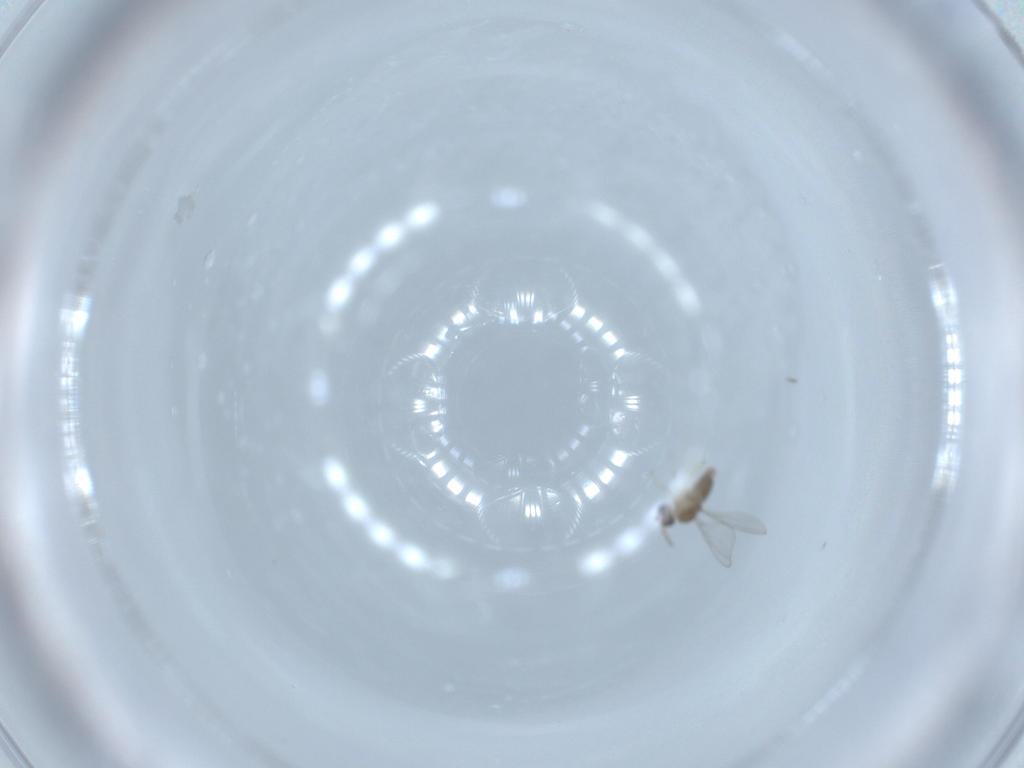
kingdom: Animalia
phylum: Arthropoda
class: Insecta
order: Diptera
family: Cecidomyiidae
